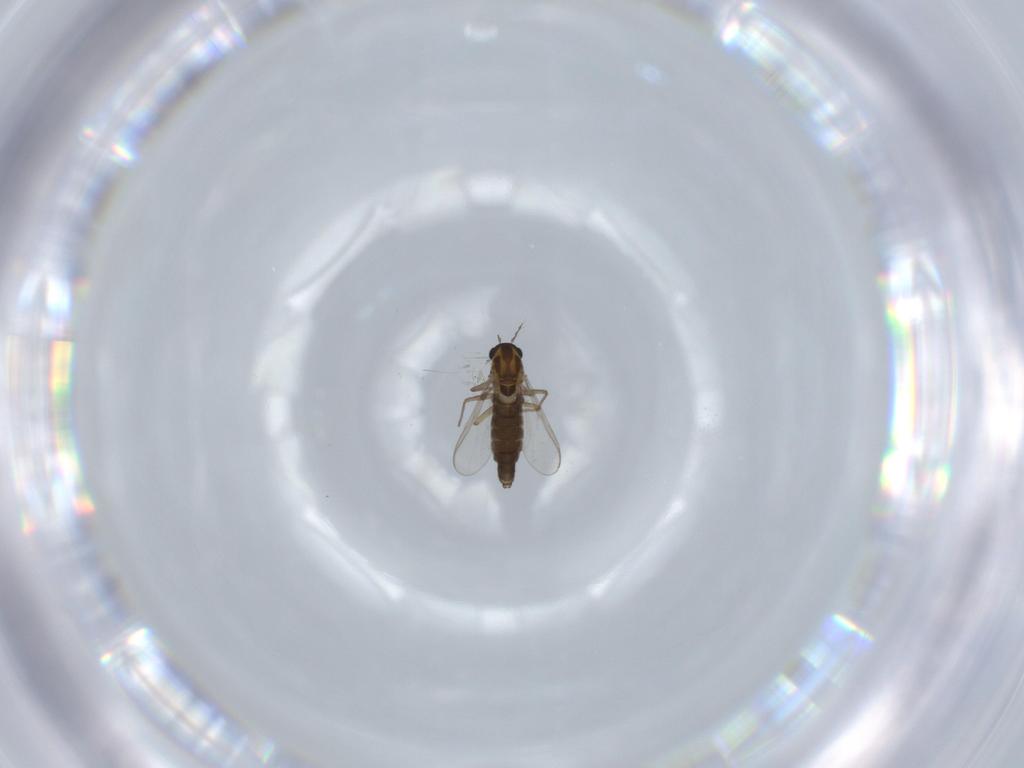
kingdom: Animalia
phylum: Arthropoda
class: Insecta
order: Diptera
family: Chironomidae
